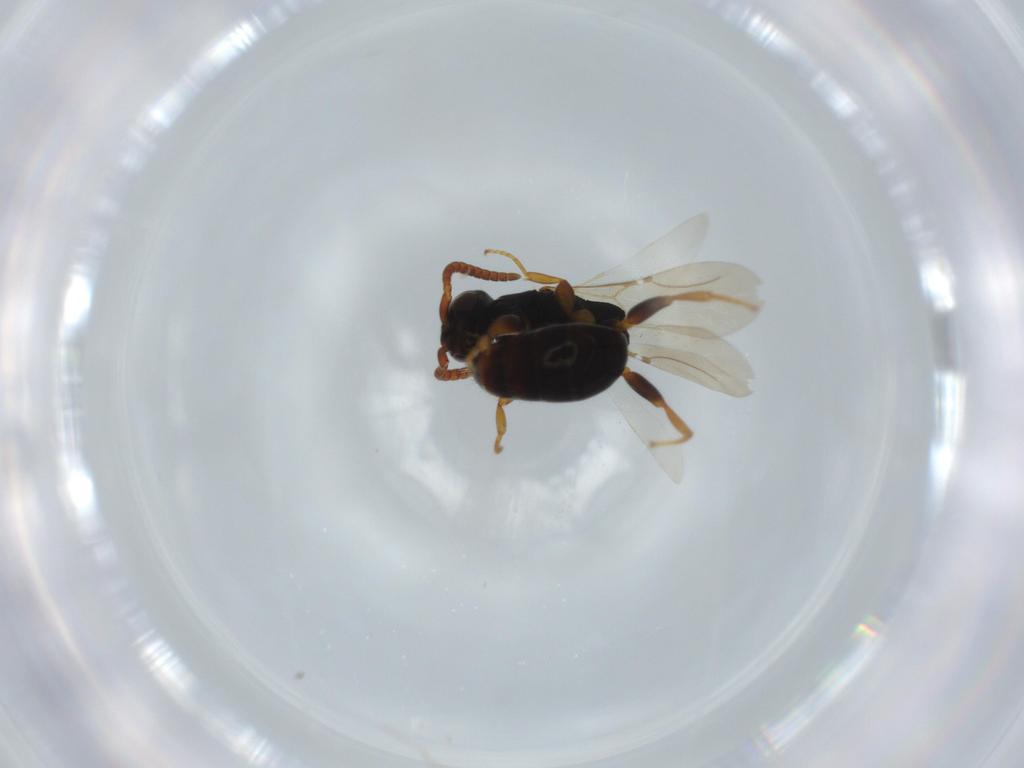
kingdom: Animalia
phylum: Arthropoda
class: Insecta
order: Hymenoptera
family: Bethylidae
